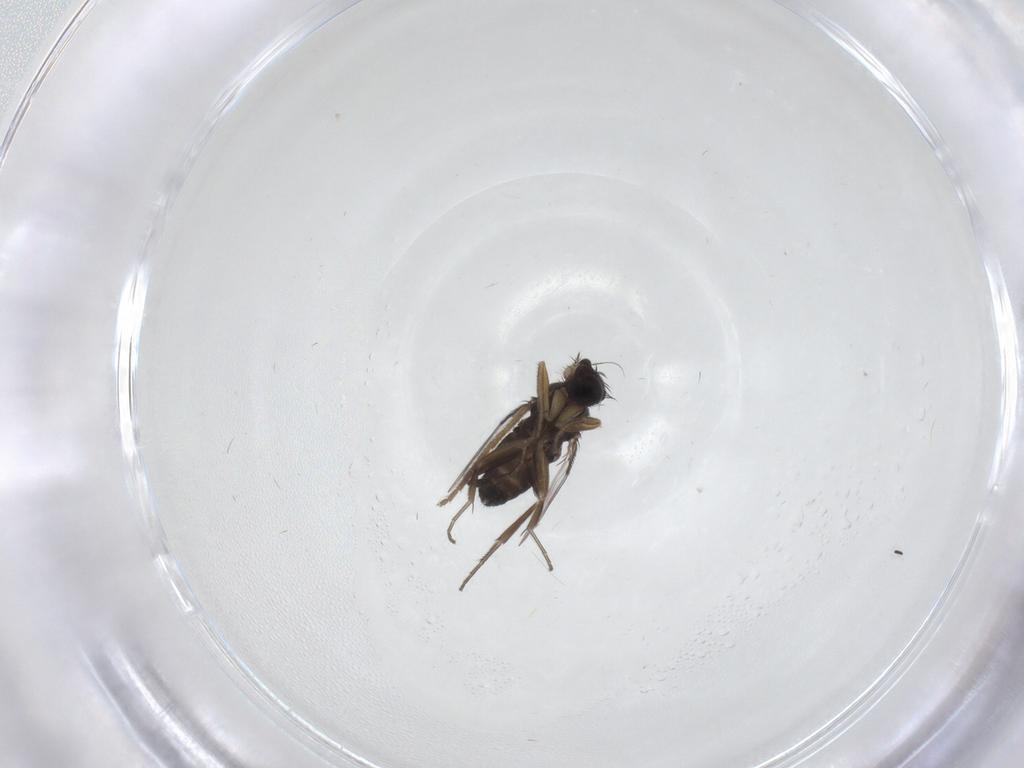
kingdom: Animalia
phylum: Arthropoda
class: Insecta
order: Diptera
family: Phoridae
